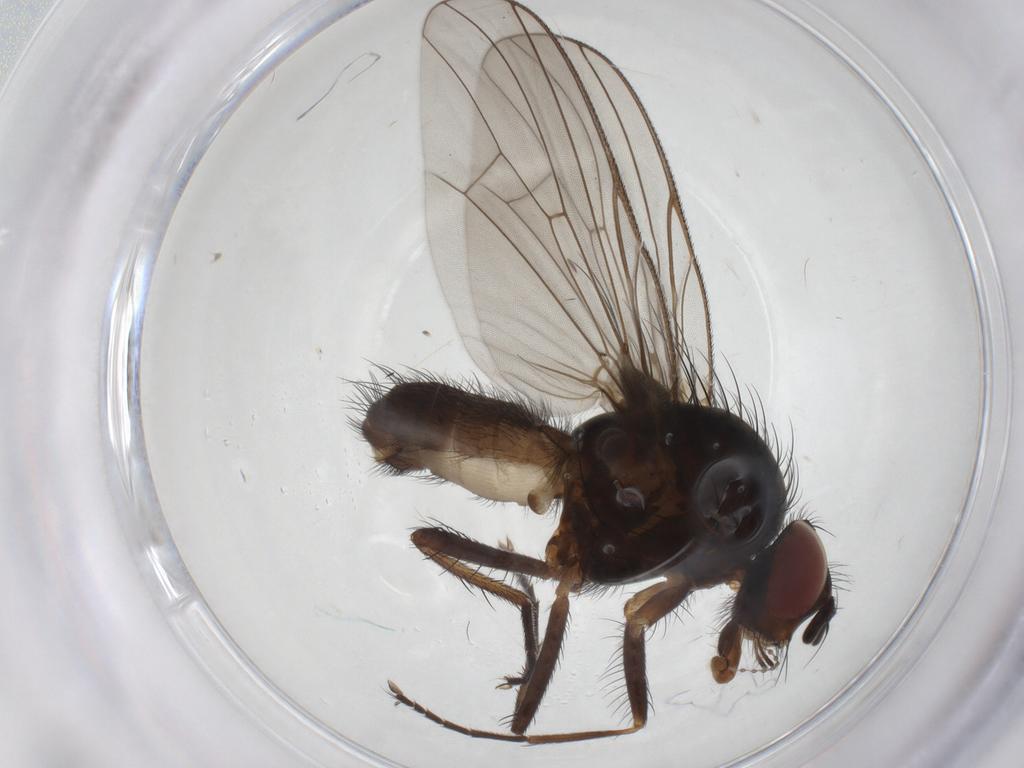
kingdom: Animalia
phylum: Arthropoda
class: Insecta
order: Diptera
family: Anthomyiidae
